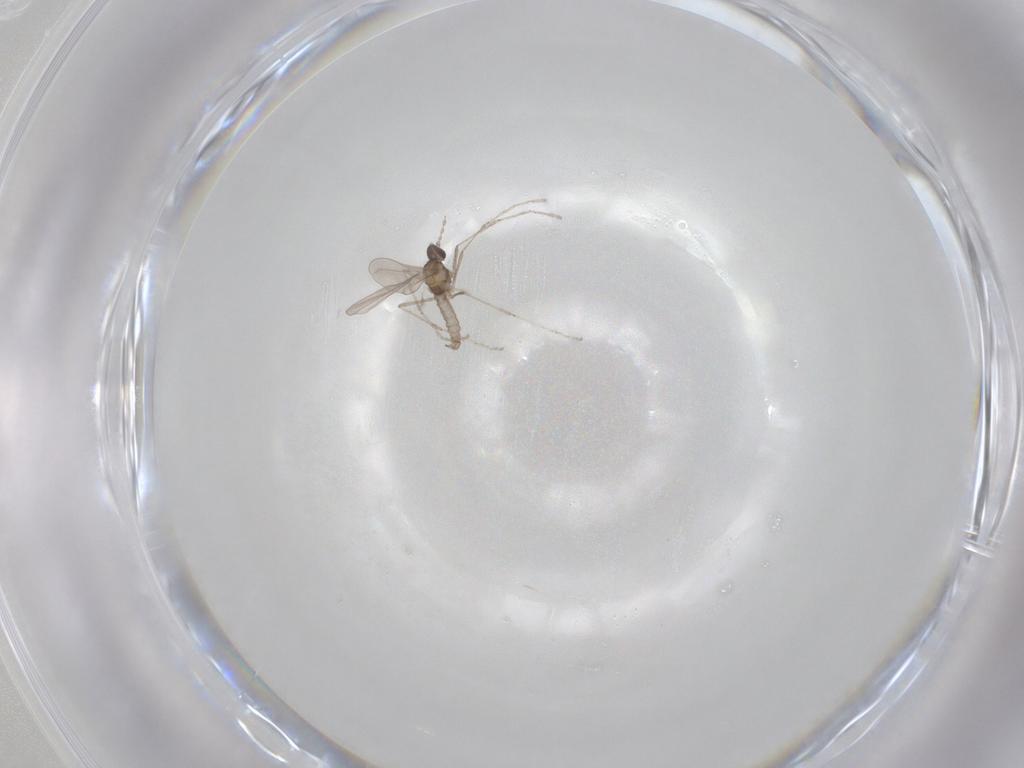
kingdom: Animalia
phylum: Arthropoda
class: Insecta
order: Diptera
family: Cecidomyiidae
